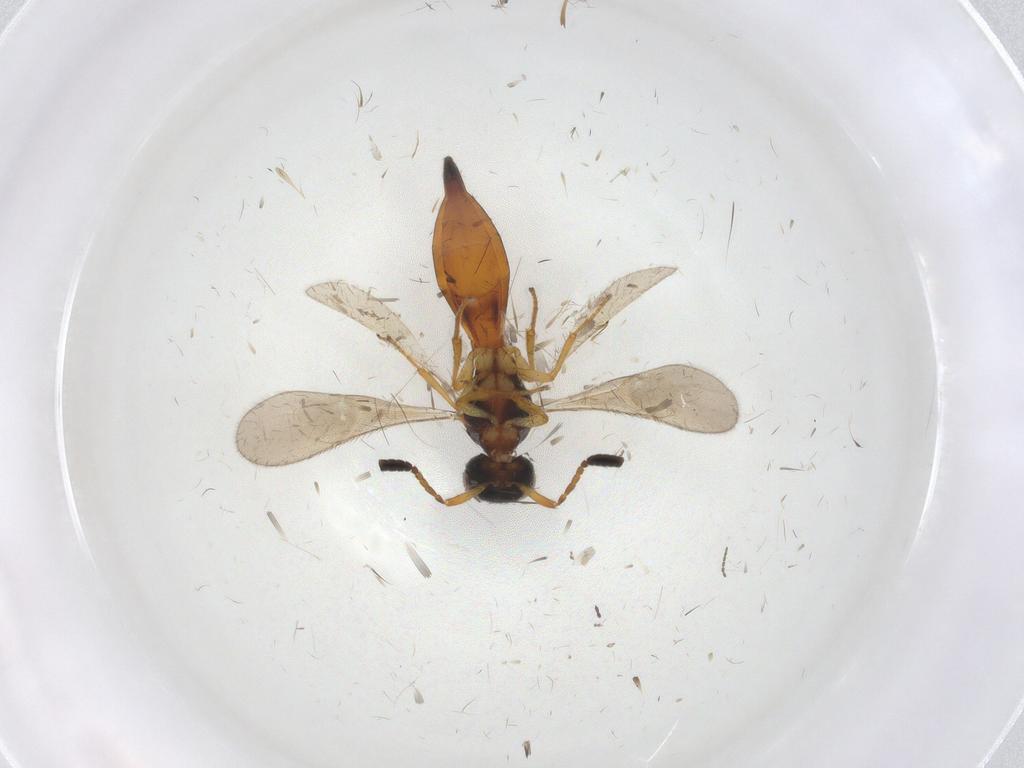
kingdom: Animalia
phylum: Arthropoda
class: Insecta
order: Hymenoptera
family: Scelionidae
